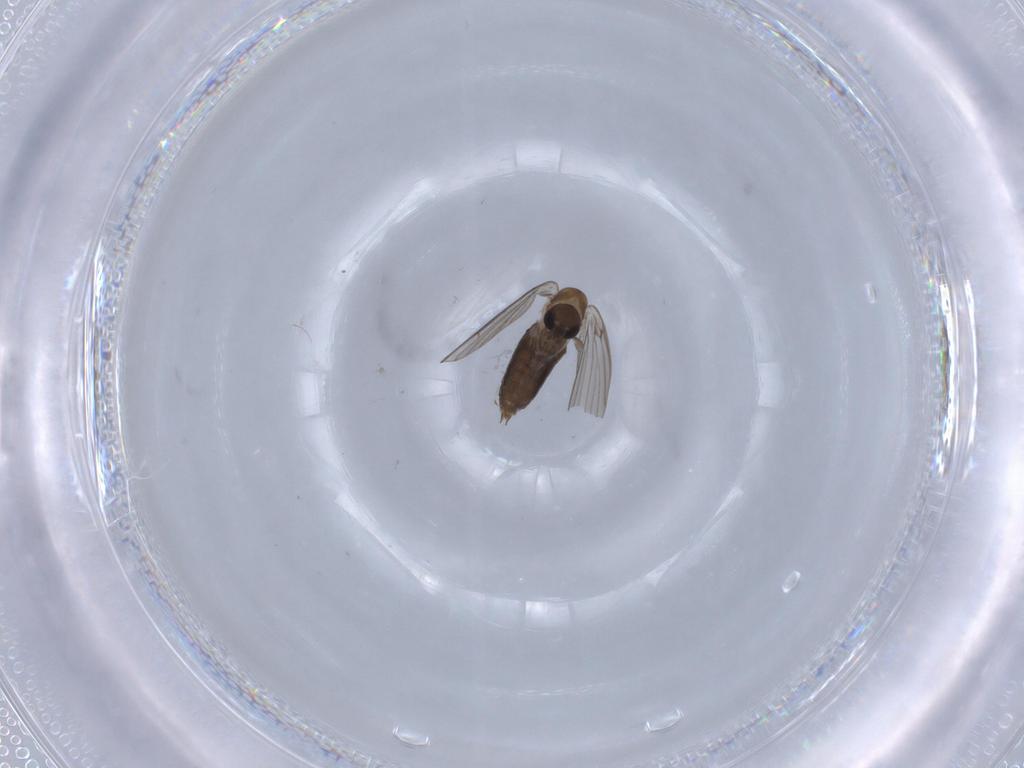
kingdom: Animalia
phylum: Arthropoda
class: Insecta
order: Diptera
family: Psychodidae
